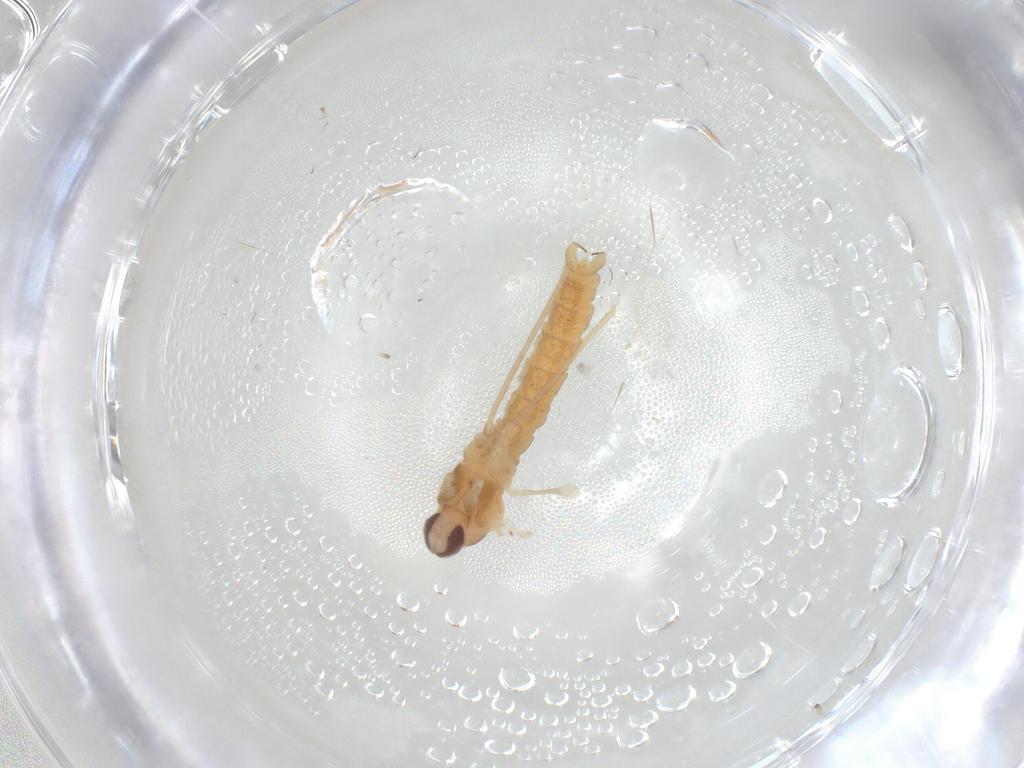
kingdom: Animalia
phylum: Arthropoda
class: Insecta
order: Diptera
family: Cecidomyiidae
